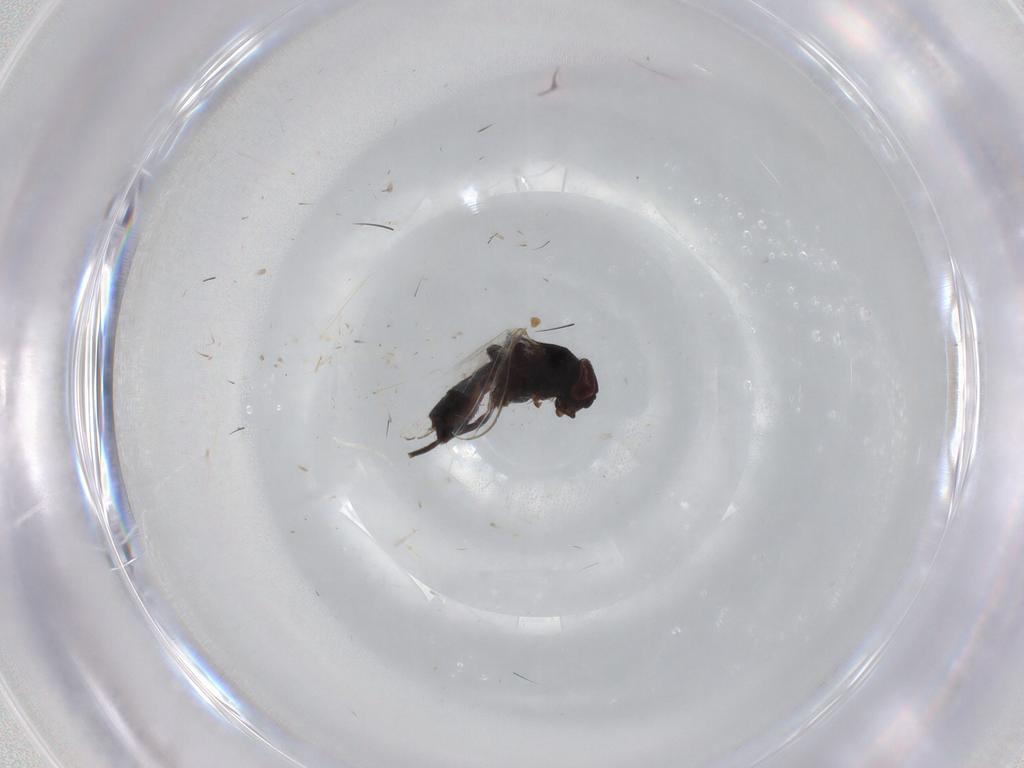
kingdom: Animalia
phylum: Arthropoda
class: Insecta
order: Diptera
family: Milichiidae
